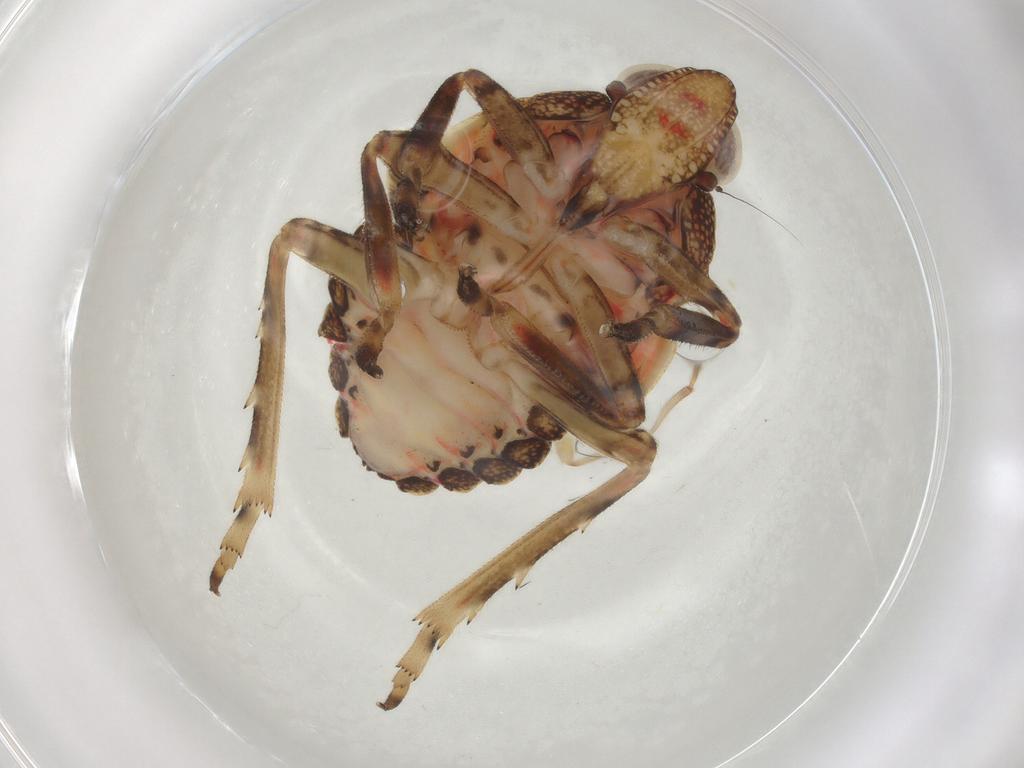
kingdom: Animalia
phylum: Arthropoda
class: Insecta
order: Hemiptera
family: Tropiduchidae
